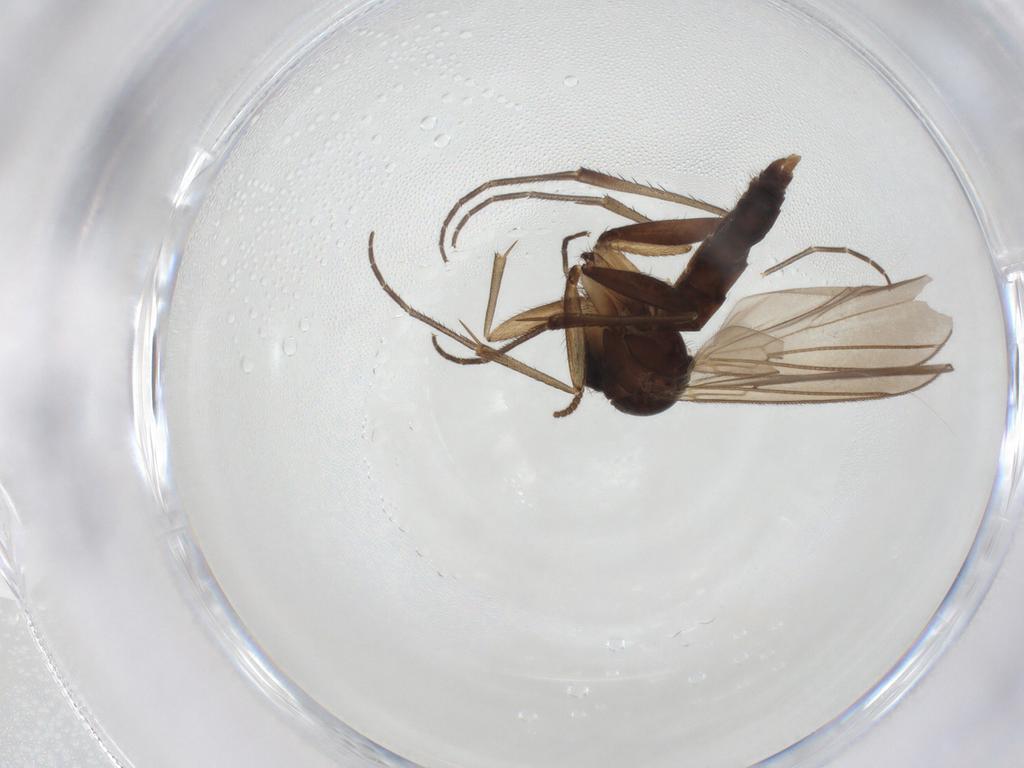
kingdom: Animalia
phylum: Arthropoda
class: Insecta
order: Diptera
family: Mycetophilidae
